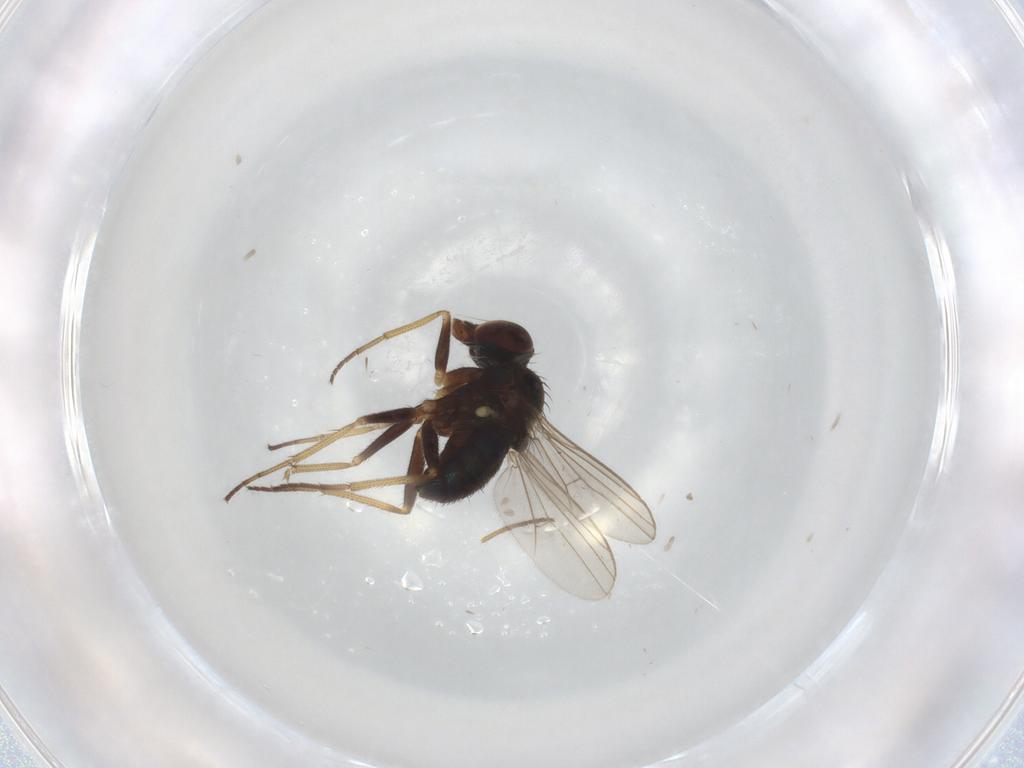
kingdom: Animalia
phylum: Arthropoda
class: Insecta
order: Diptera
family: Dolichopodidae
